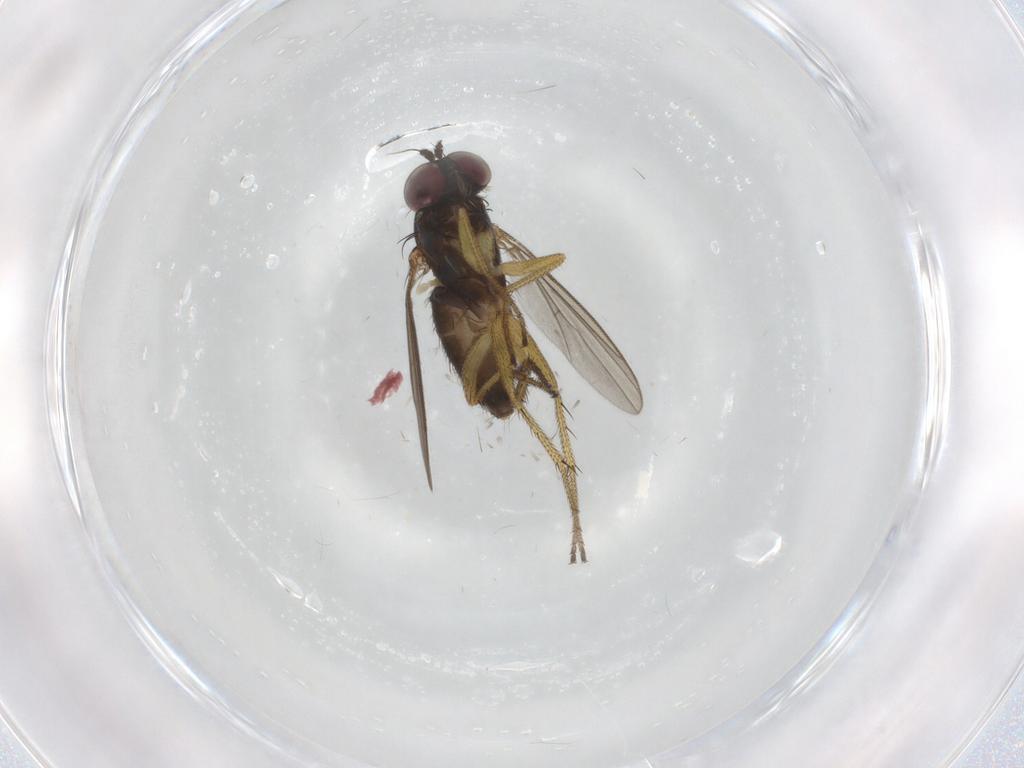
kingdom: Animalia
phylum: Arthropoda
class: Insecta
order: Diptera
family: Dolichopodidae
